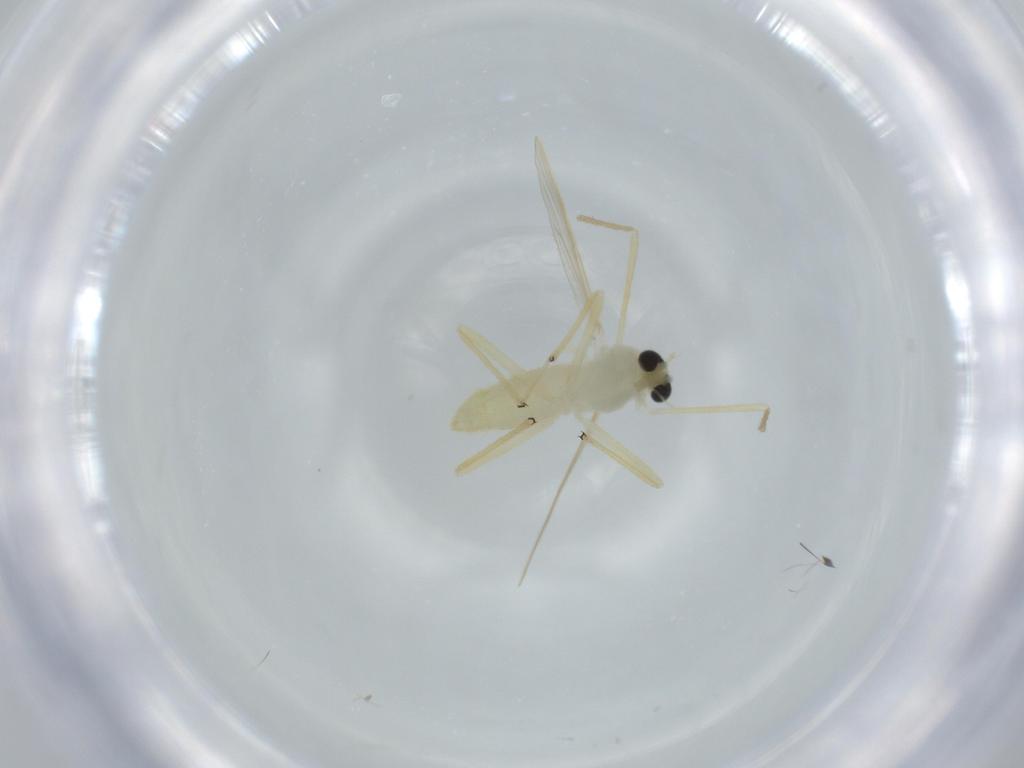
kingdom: Animalia
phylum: Arthropoda
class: Insecta
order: Diptera
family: Chironomidae
